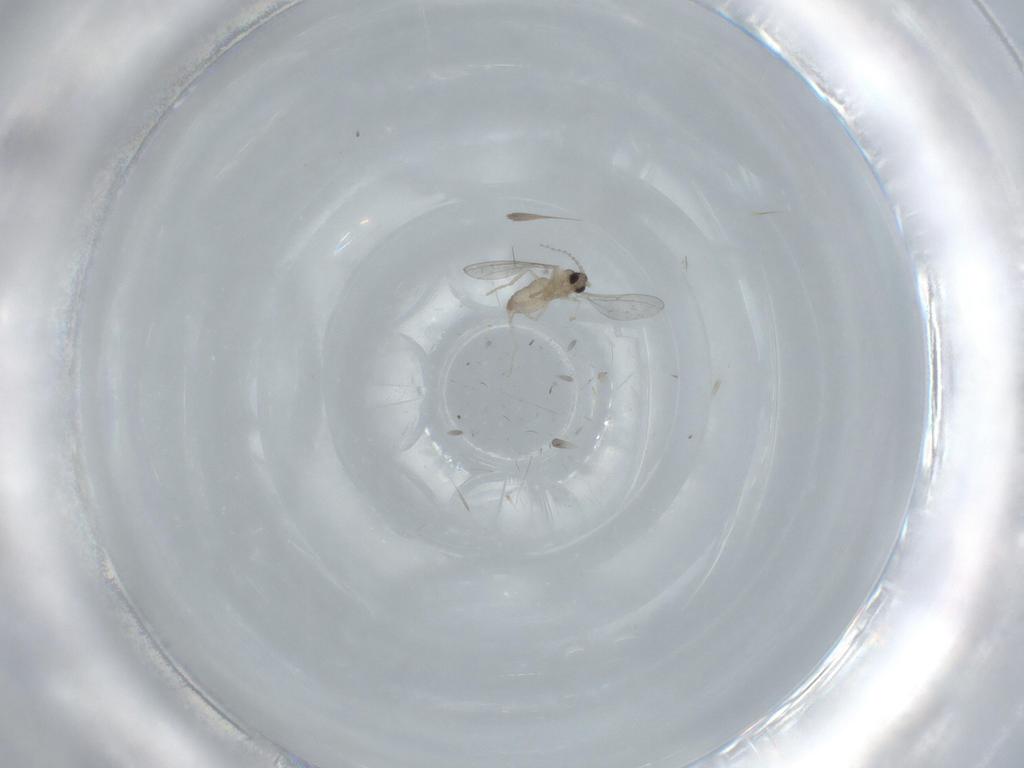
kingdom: Animalia
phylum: Arthropoda
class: Insecta
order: Diptera
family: Cecidomyiidae
